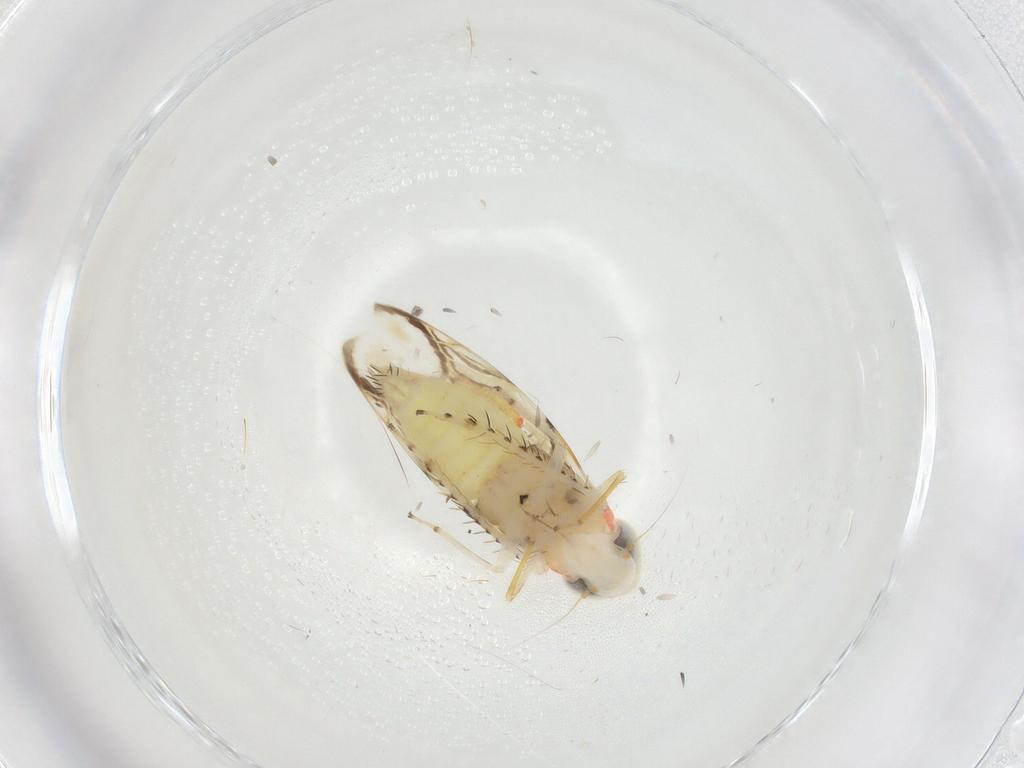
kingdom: Animalia
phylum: Arthropoda
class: Insecta
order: Hemiptera
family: Cicadellidae
